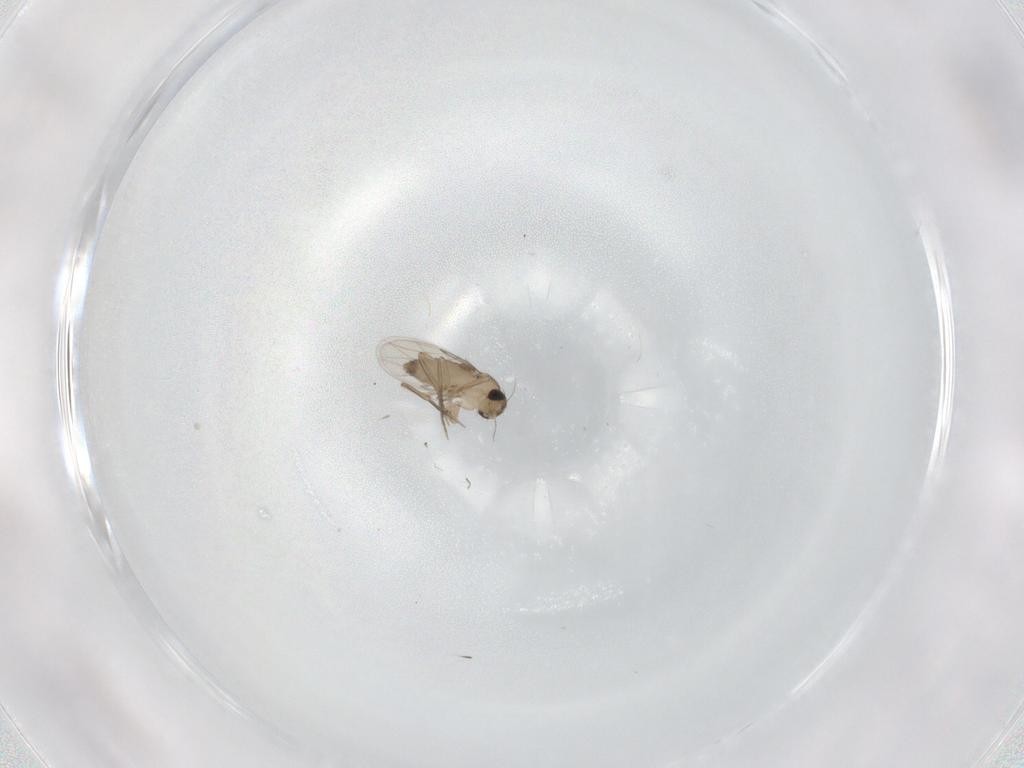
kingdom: Animalia
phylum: Arthropoda
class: Insecta
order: Diptera
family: Phoridae
